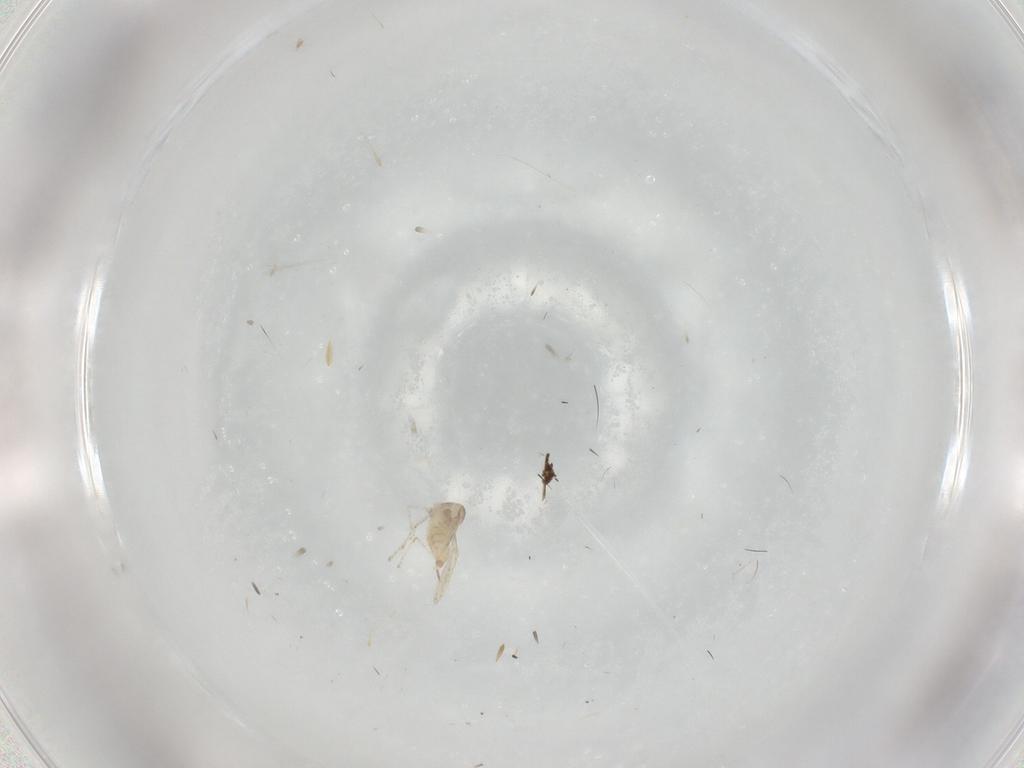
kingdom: Animalia
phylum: Arthropoda
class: Insecta
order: Diptera
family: Cecidomyiidae
